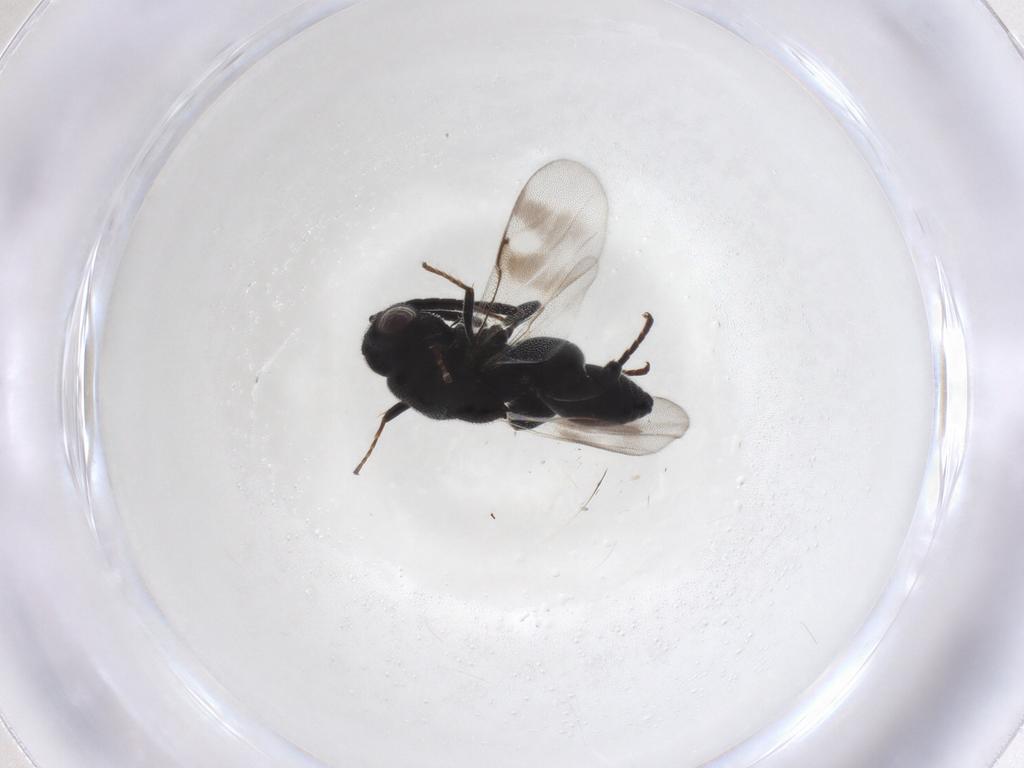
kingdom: Animalia
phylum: Arthropoda
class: Insecta
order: Hymenoptera
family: Chalcididae
